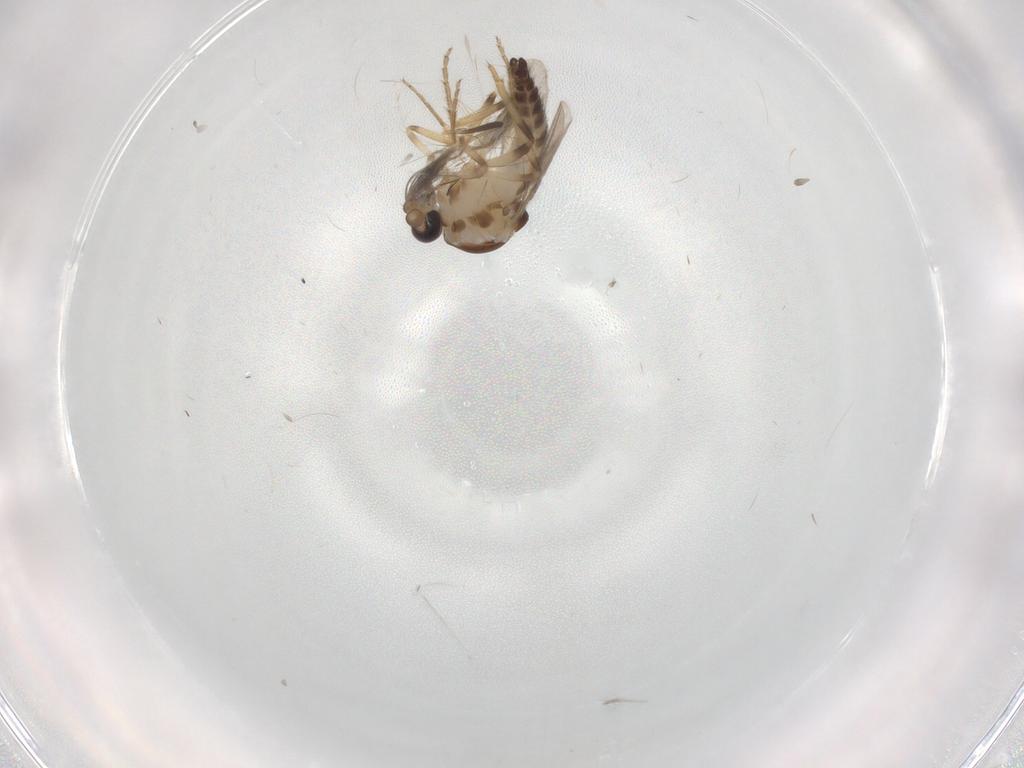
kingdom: Animalia
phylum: Arthropoda
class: Insecta
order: Diptera
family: Ceratopogonidae
